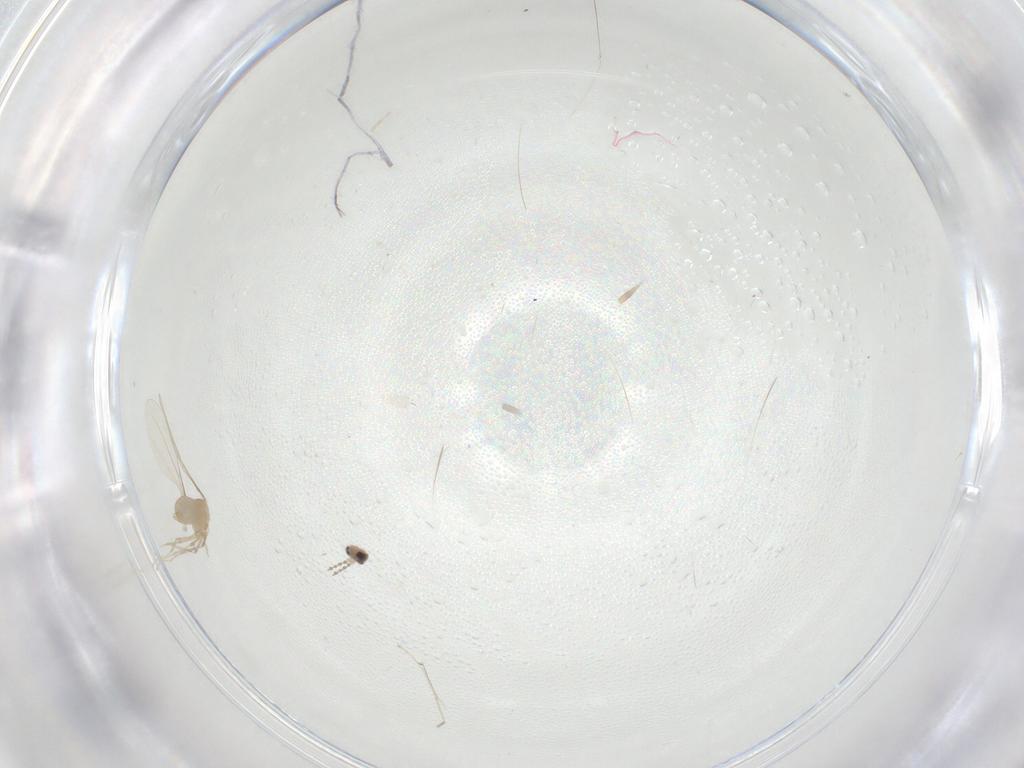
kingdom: Animalia
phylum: Arthropoda
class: Insecta
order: Diptera
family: Cecidomyiidae
